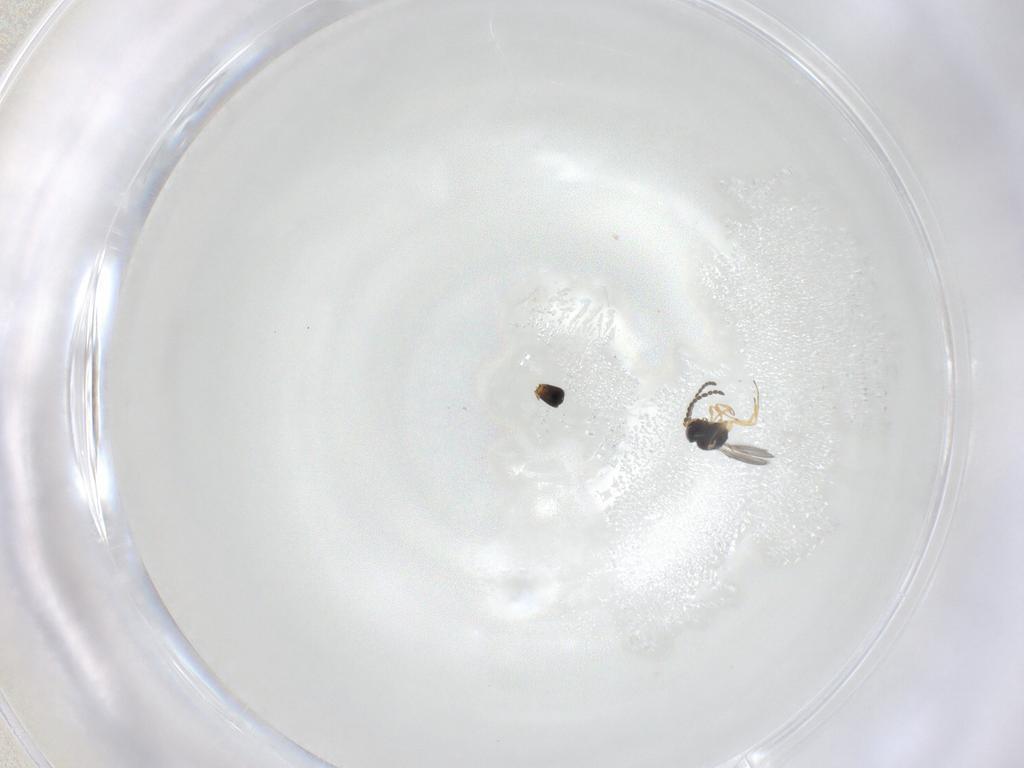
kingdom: Animalia
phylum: Arthropoda
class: Insecta
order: Hymenoptera
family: Scelionidae
